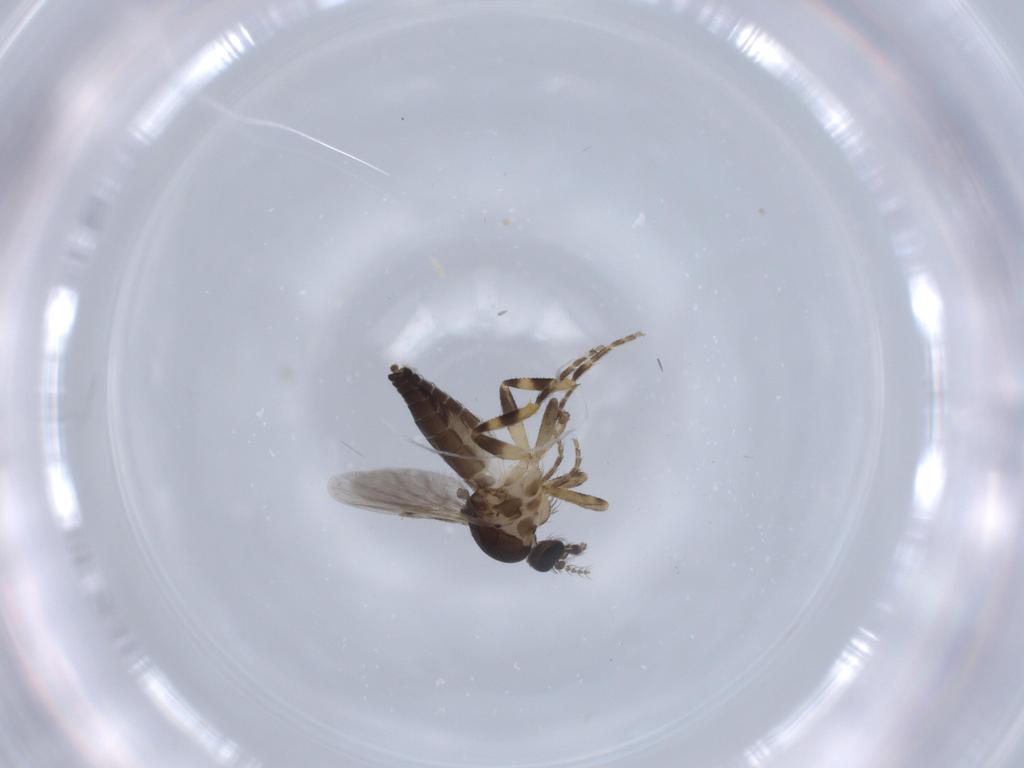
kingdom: Animalia
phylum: Arthropoda
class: Insecta
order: Diptera
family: Ceratopogonidae
